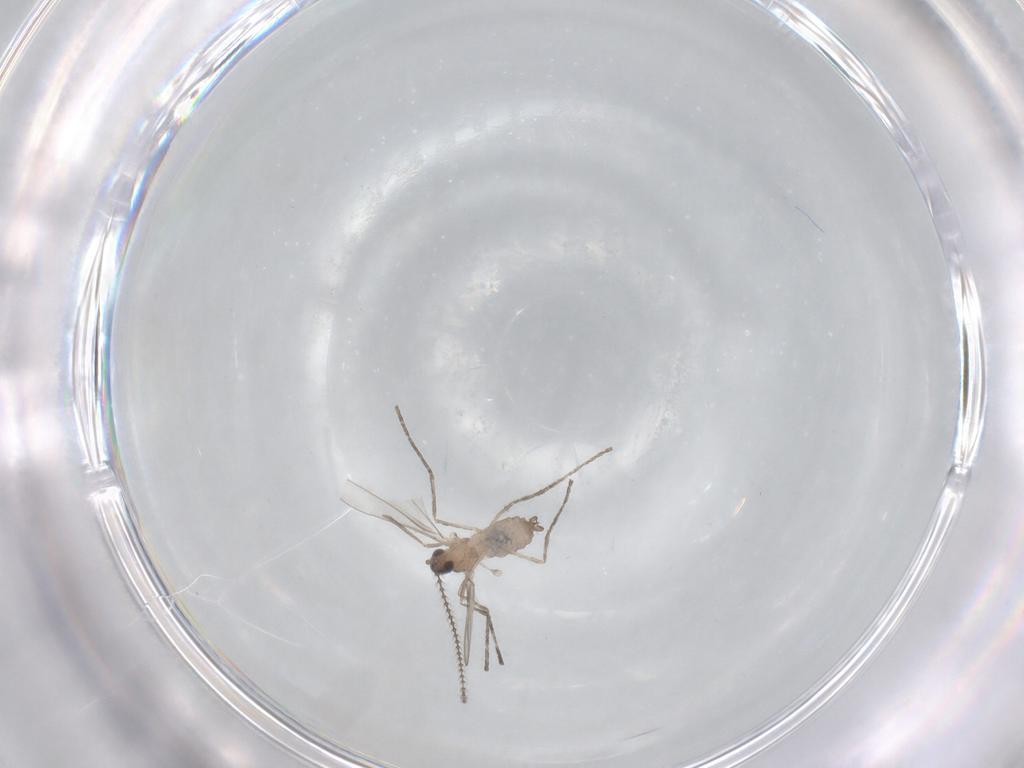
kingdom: Animalia
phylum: Arthropoda
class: Insecta
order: Diptera
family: Cecidomyiidae
